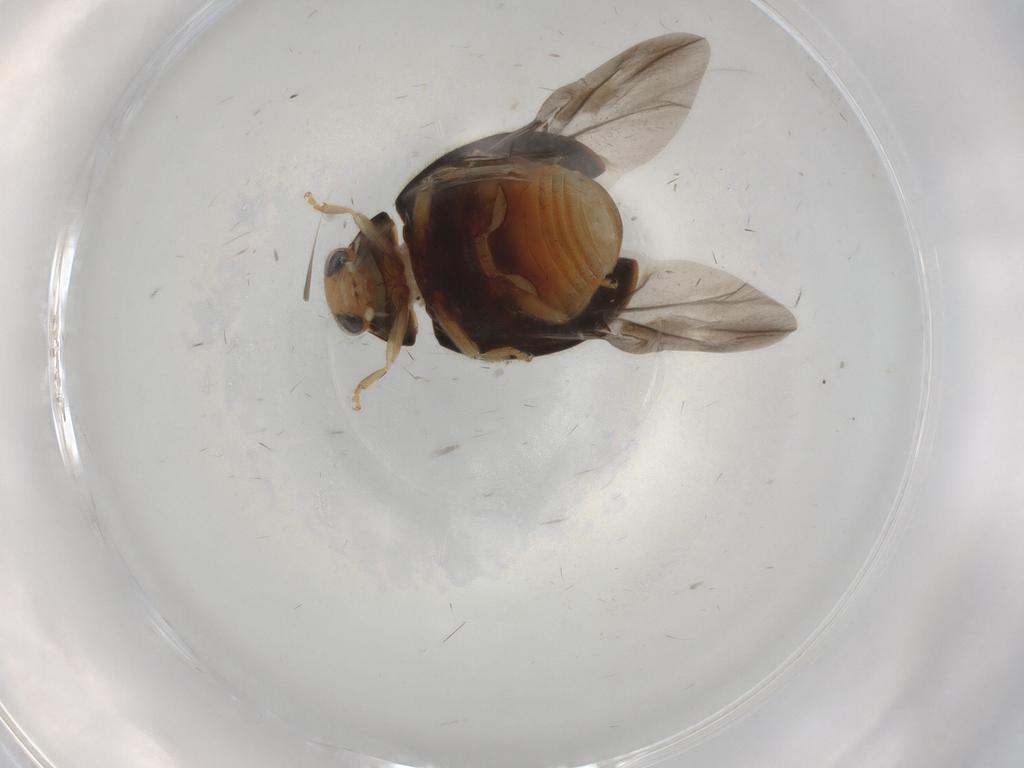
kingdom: Animalia
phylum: Arthropoda
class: Insecta
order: Coleoptera
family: Coccinellidae
